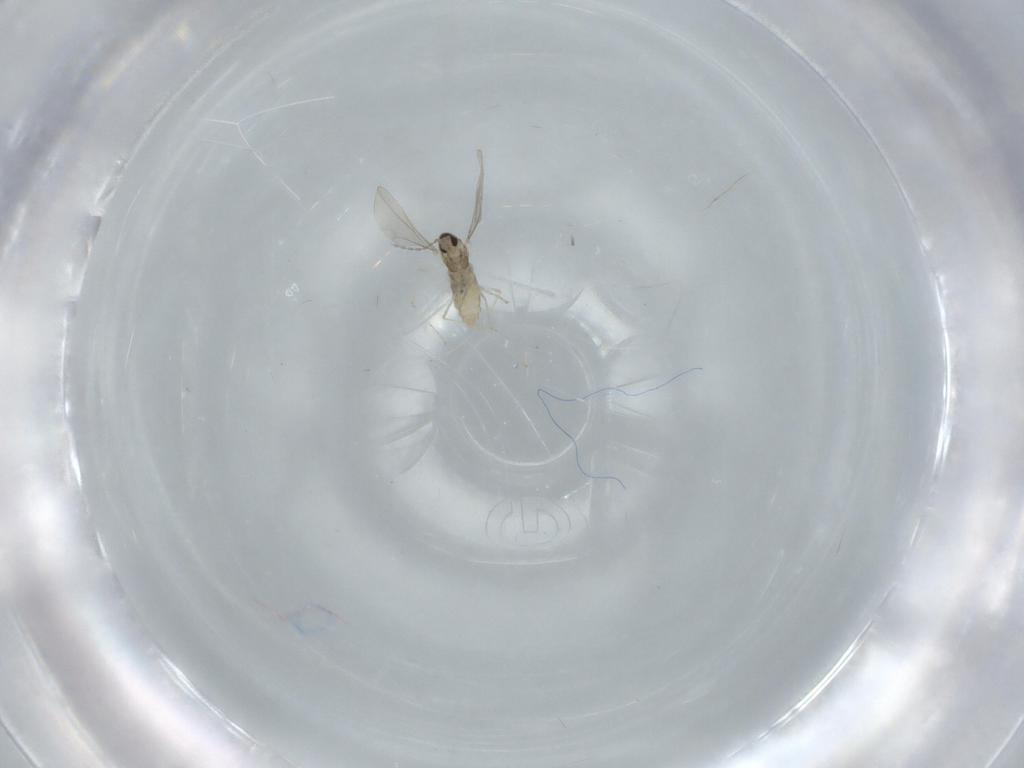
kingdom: Animalia
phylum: Arthropoda
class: Insecta
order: Diptera
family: Cecidomyiidae
